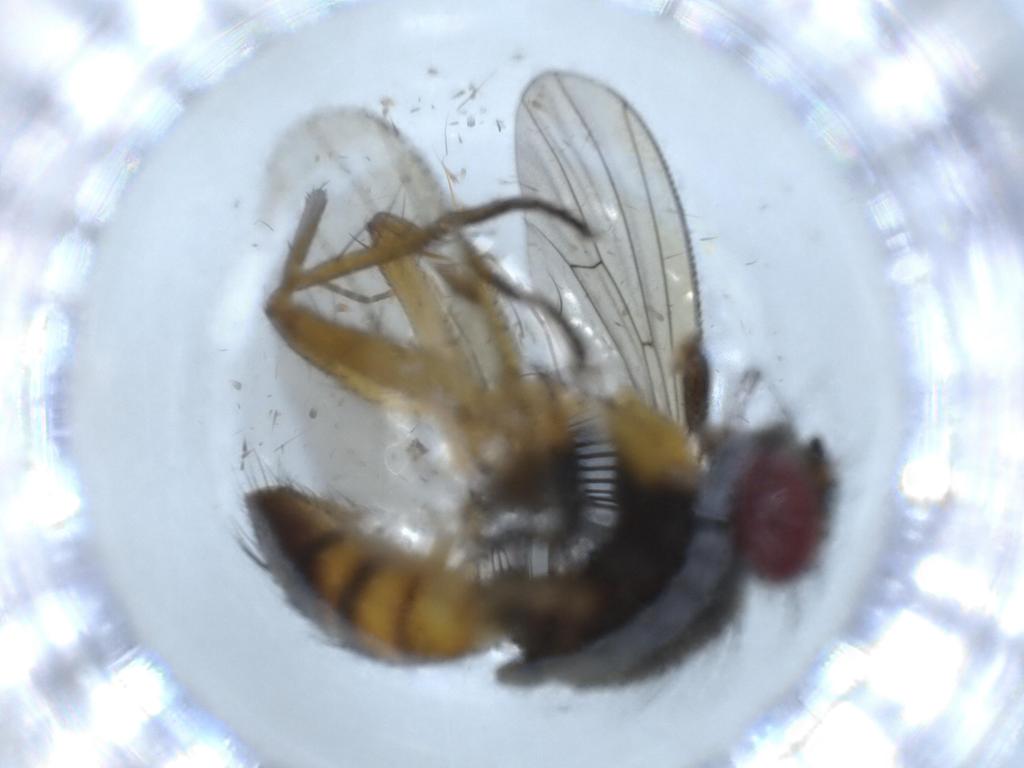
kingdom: Animalia
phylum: Arthropoda
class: Insecta
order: Diptera
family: Muscidae
